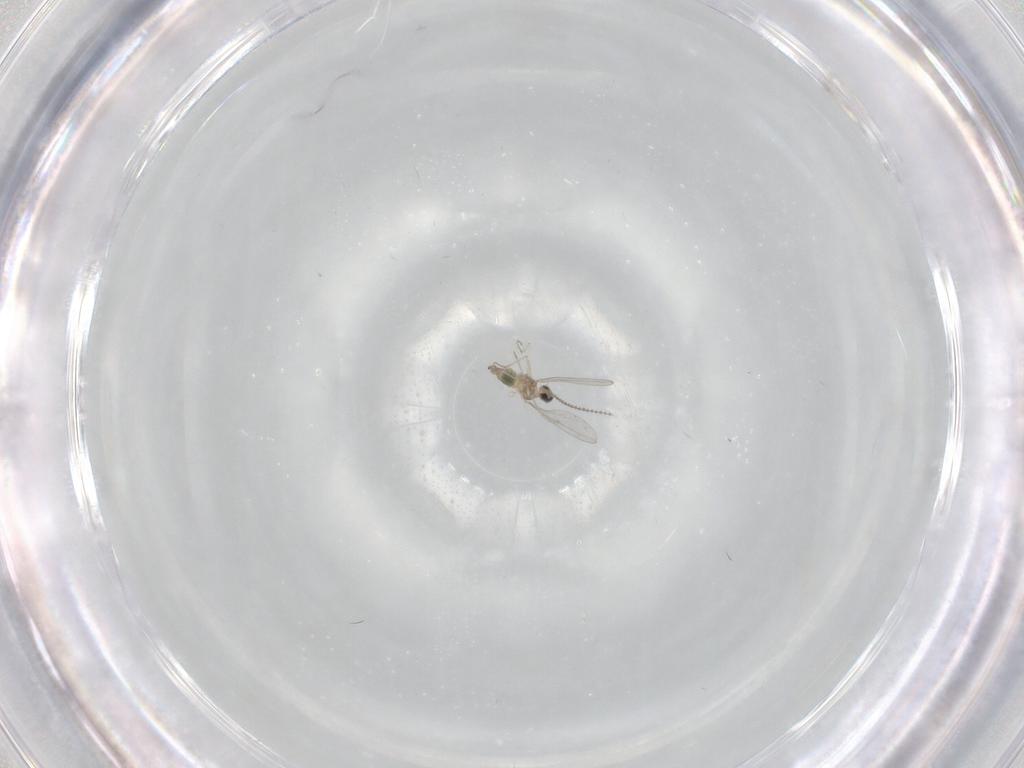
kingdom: Animalia
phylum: Arthropoda
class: Insecta
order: Diptera
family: Cecidomyiidae
